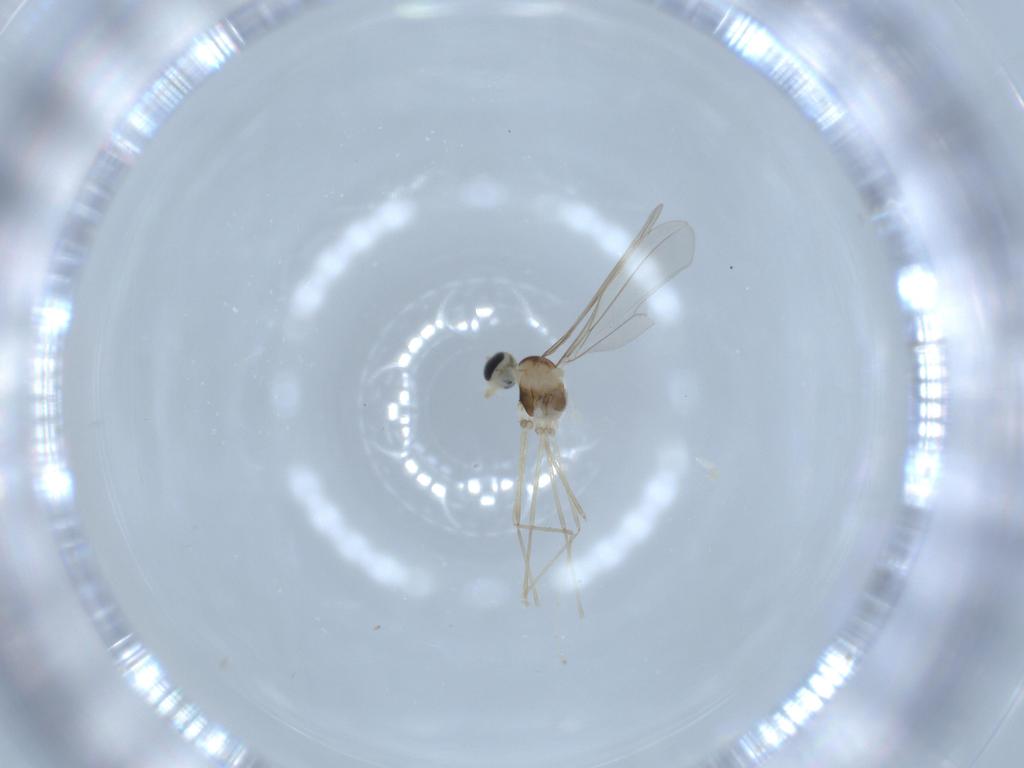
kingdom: Animalia
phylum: Arthropoda
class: Insecta
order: Diptera
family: Cecidomyiidae
